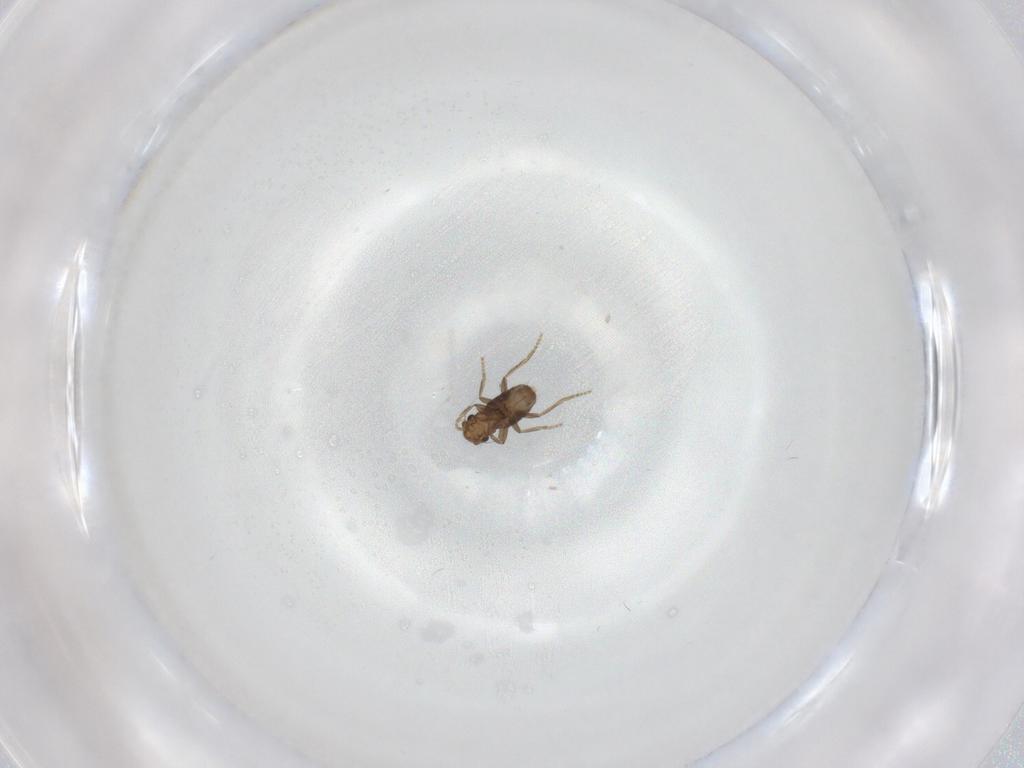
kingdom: Animalia
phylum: Arthropoda
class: Insecta
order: Diptera
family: Phoridae
